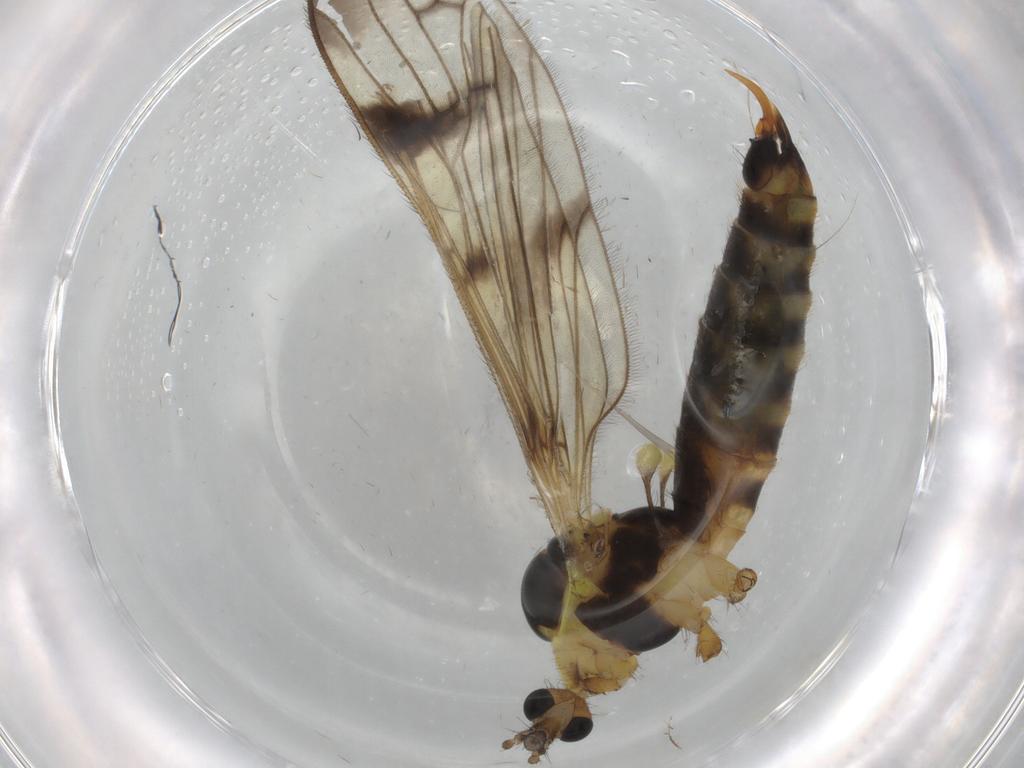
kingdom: Animalia
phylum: Arthropoda
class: Insecta
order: Diptera
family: Limoniidae
